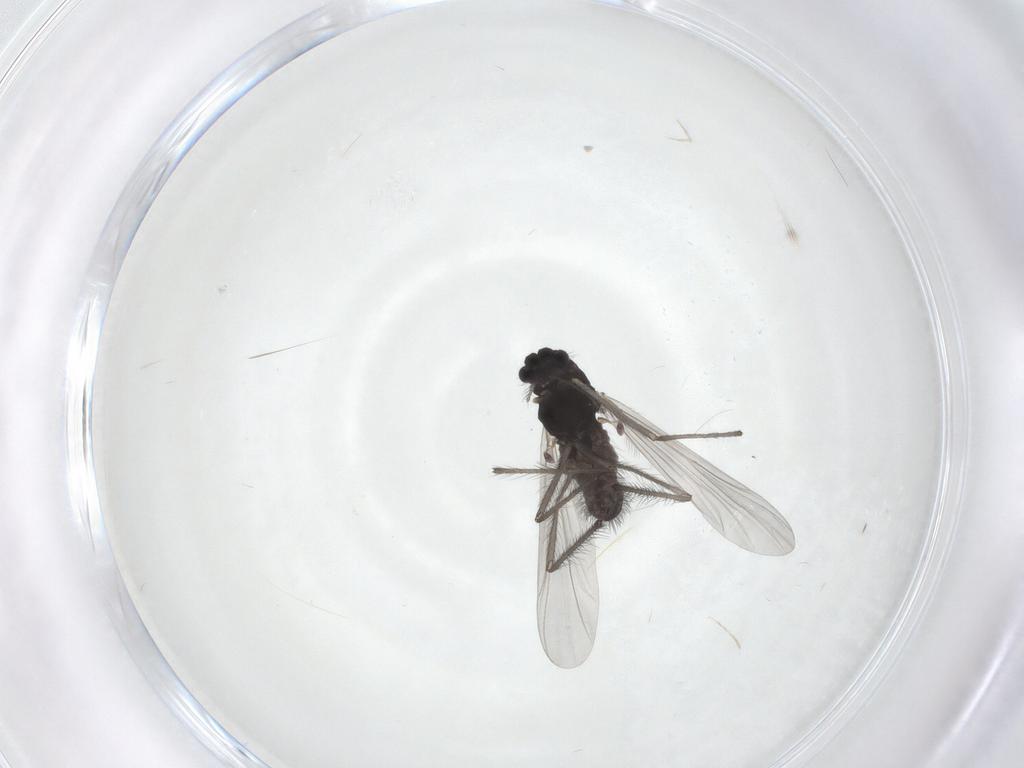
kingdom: Animalia
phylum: Arthropoda
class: Insecta
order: Diptera
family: Chironomidae
